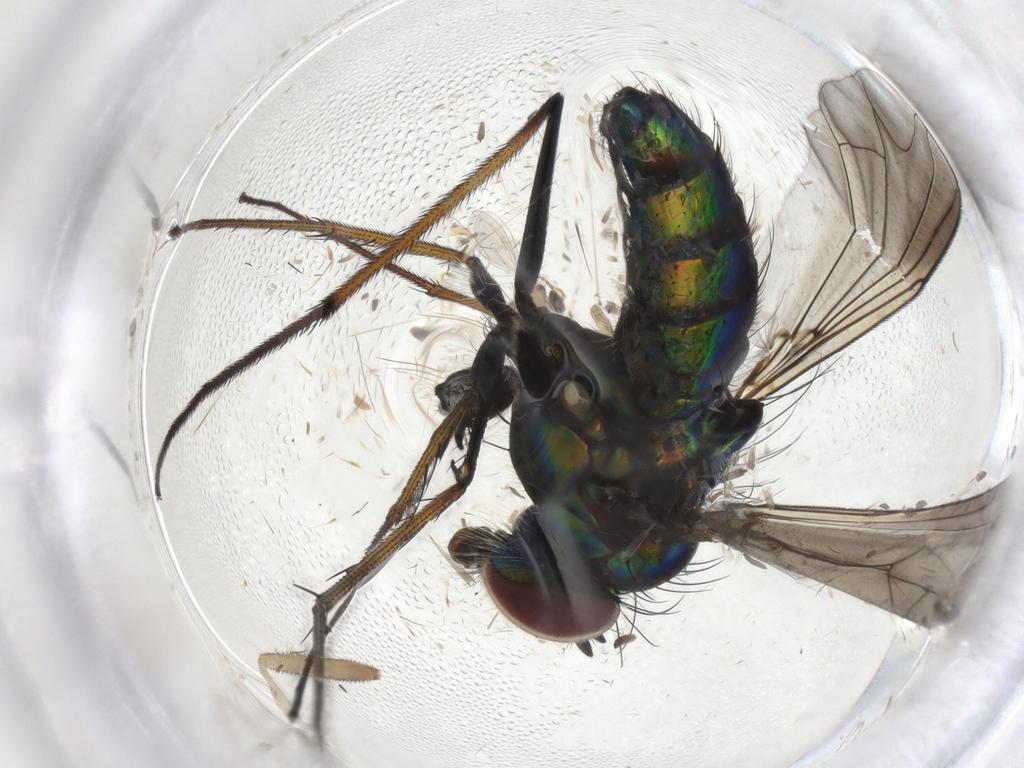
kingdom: Animalia
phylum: Arthropoda
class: Insecta
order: Diptera
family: Dolichopodidae
